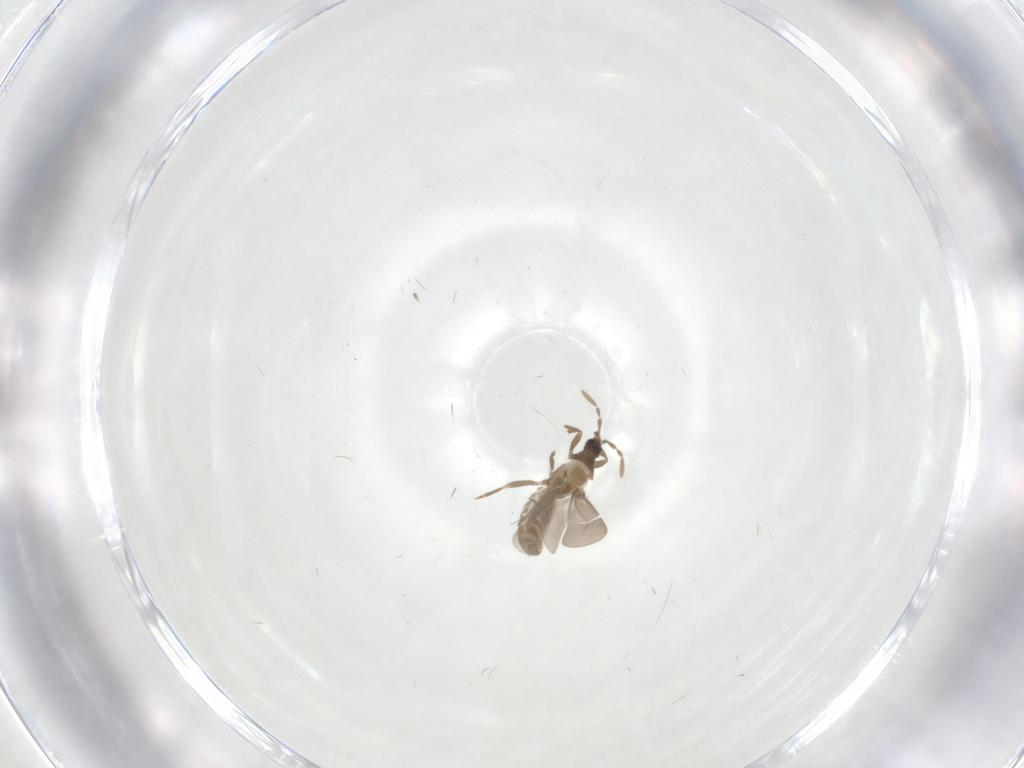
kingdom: Animalia
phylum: Arthropoda
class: Insecta
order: Hemiptera
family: Enicocephalidae
